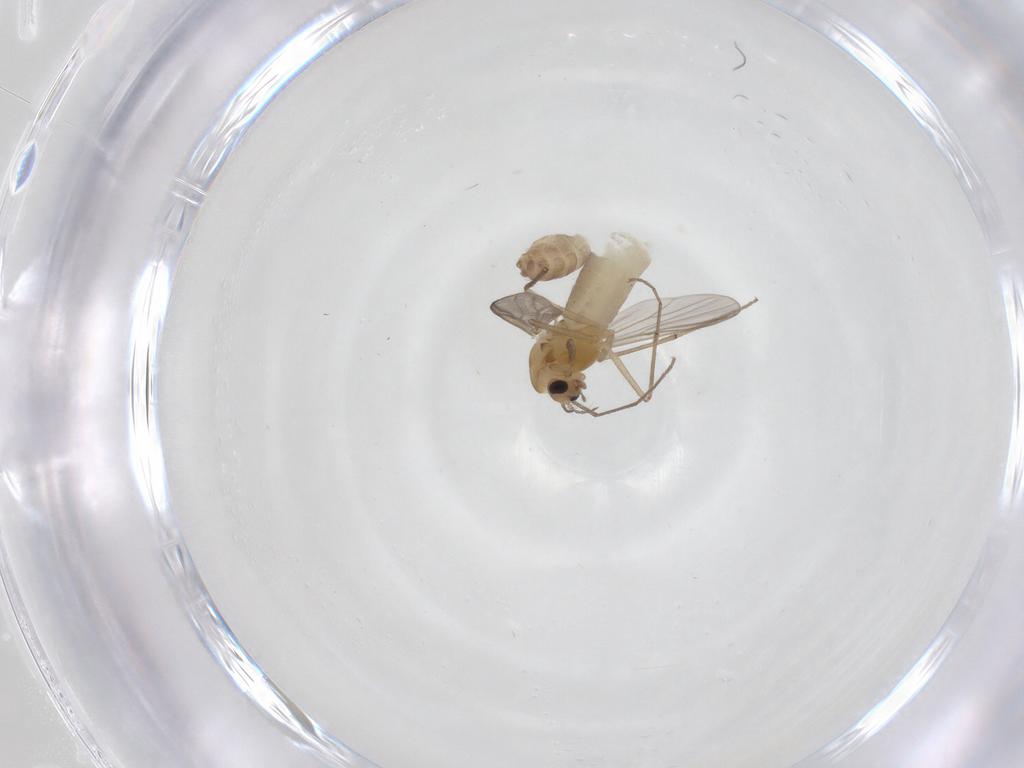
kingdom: Animalia
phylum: Arthropoda
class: Insecta
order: Diptera
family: Chironomidae
